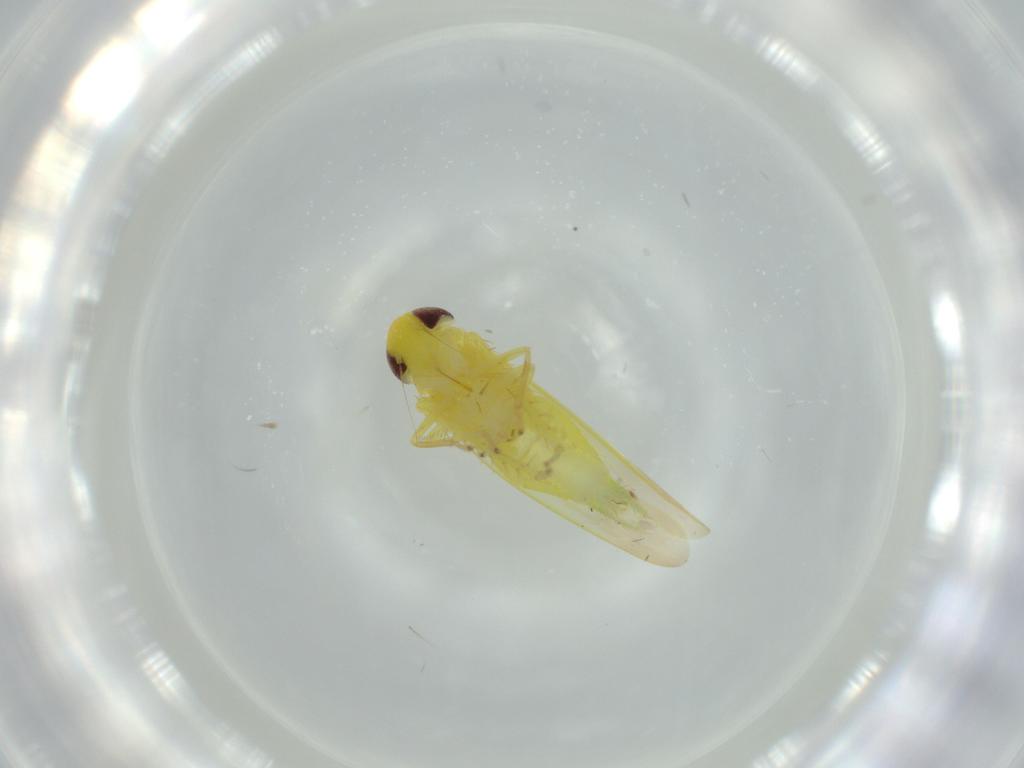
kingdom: Animalia
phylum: Arthropoda
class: Insecta
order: Hemiptera
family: Cicadellidae
